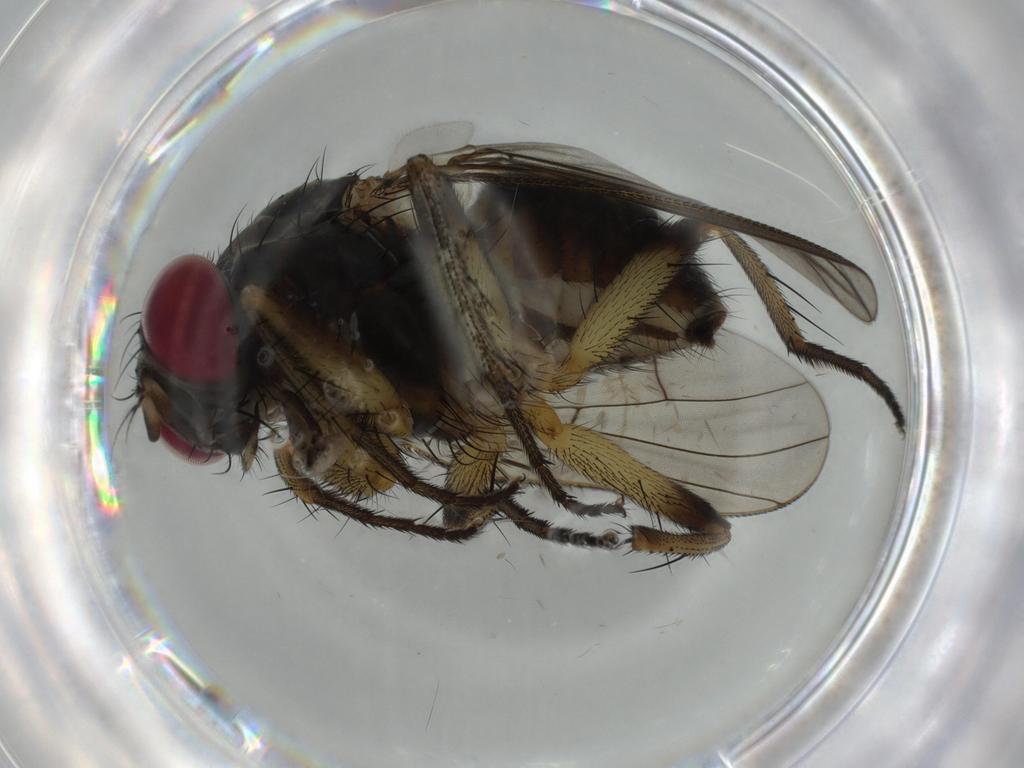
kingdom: Animalia
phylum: Arthropoda
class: Insecta
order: Diptera
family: Muscidae
